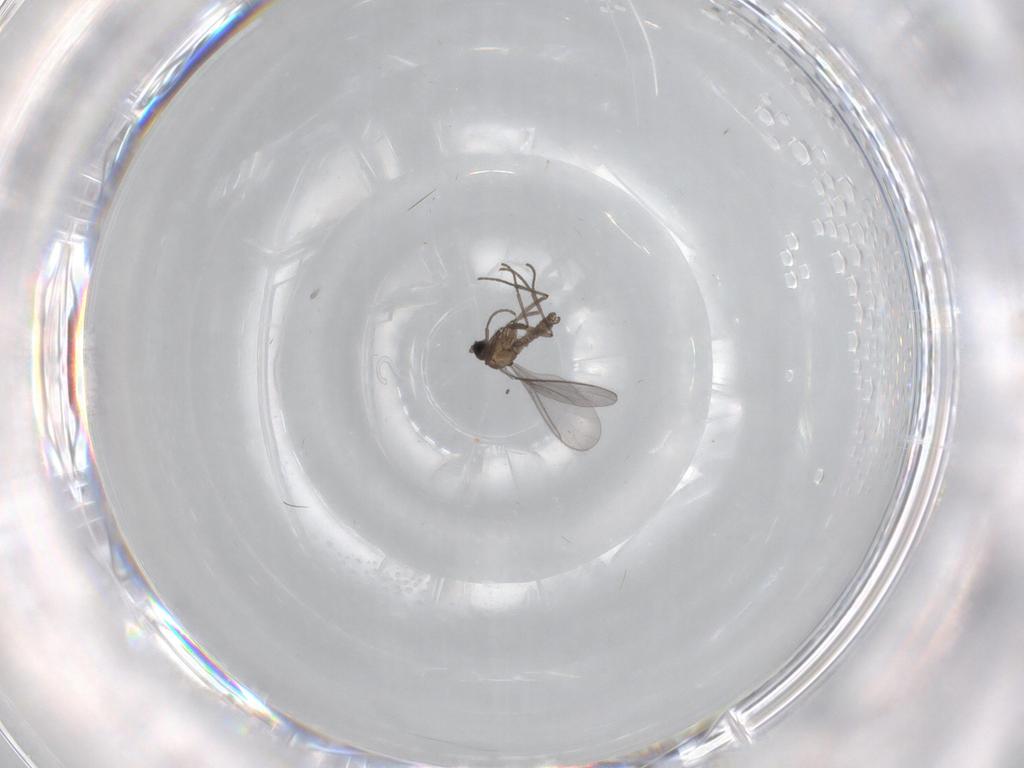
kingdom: Animalia
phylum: Arthropoda
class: Insecta
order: Diptera
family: Sciaridae
